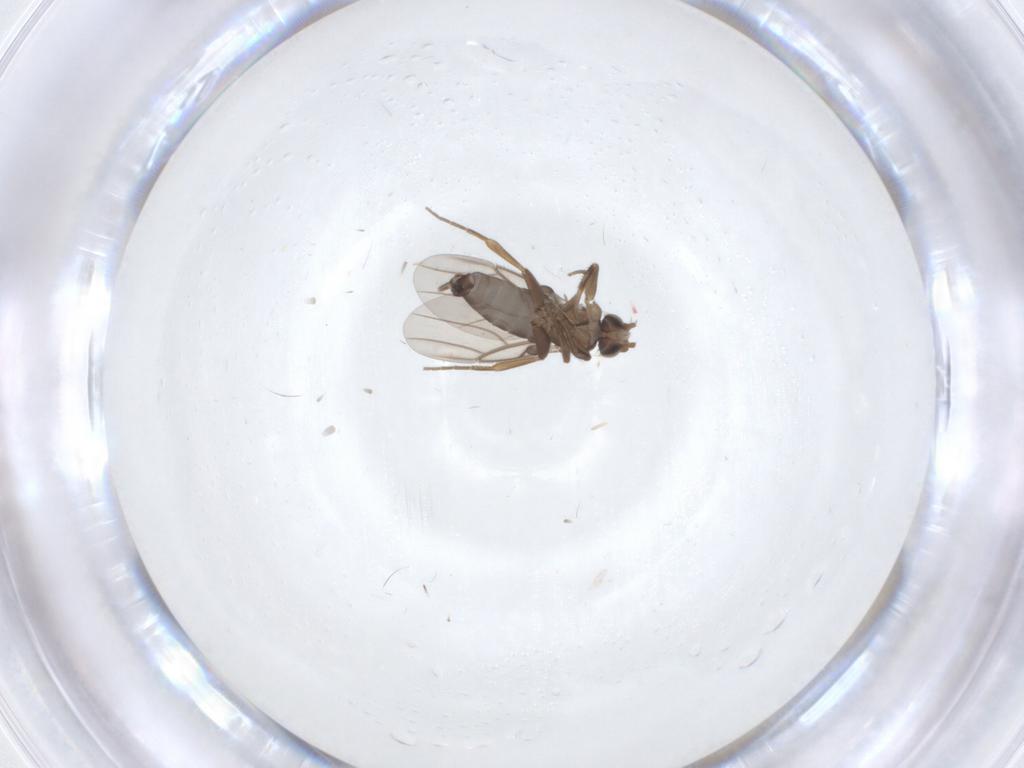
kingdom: Animalia
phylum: Arthropoda
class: Insecta
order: Diptera
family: Ceratopogonidae
